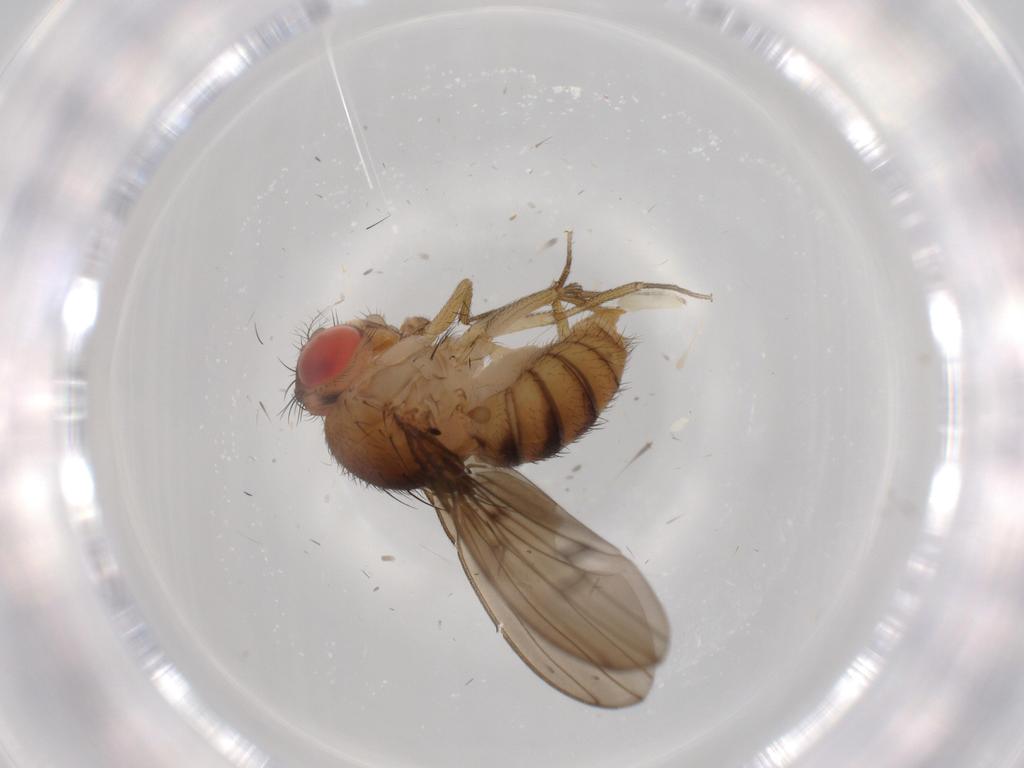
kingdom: Animalia
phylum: Arthropoda
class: Insecta
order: Diptera
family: Drosophilidae
